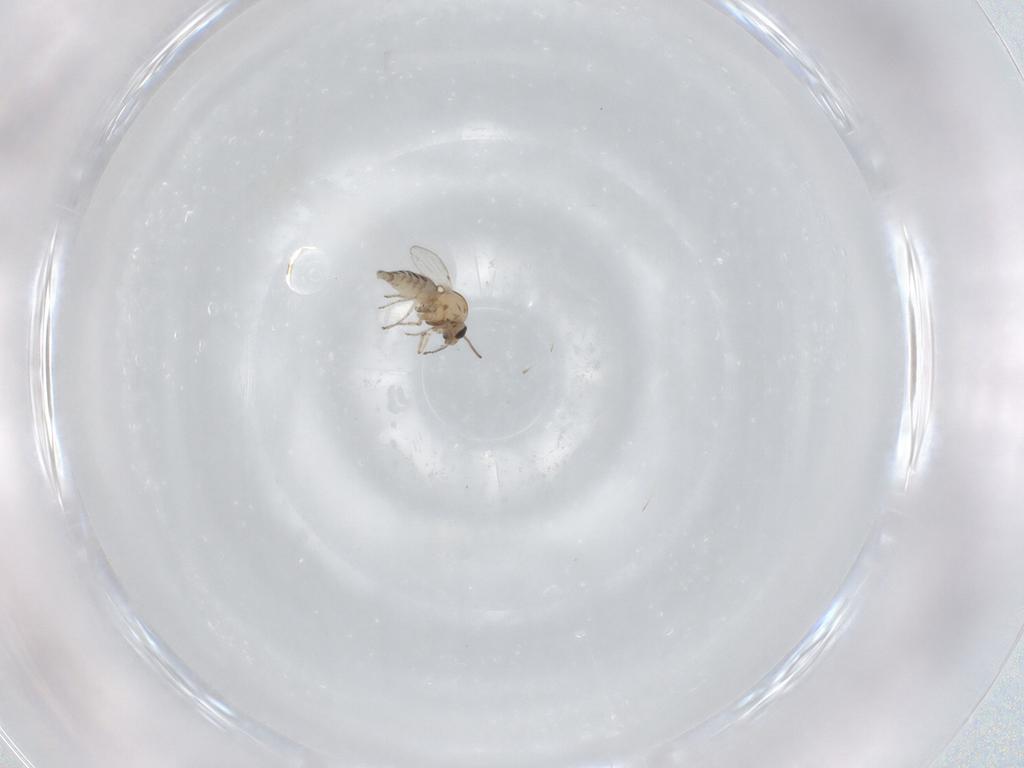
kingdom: Animalia
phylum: Arthropoda
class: Insecta
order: Diptera
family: Ceratopogonidae
